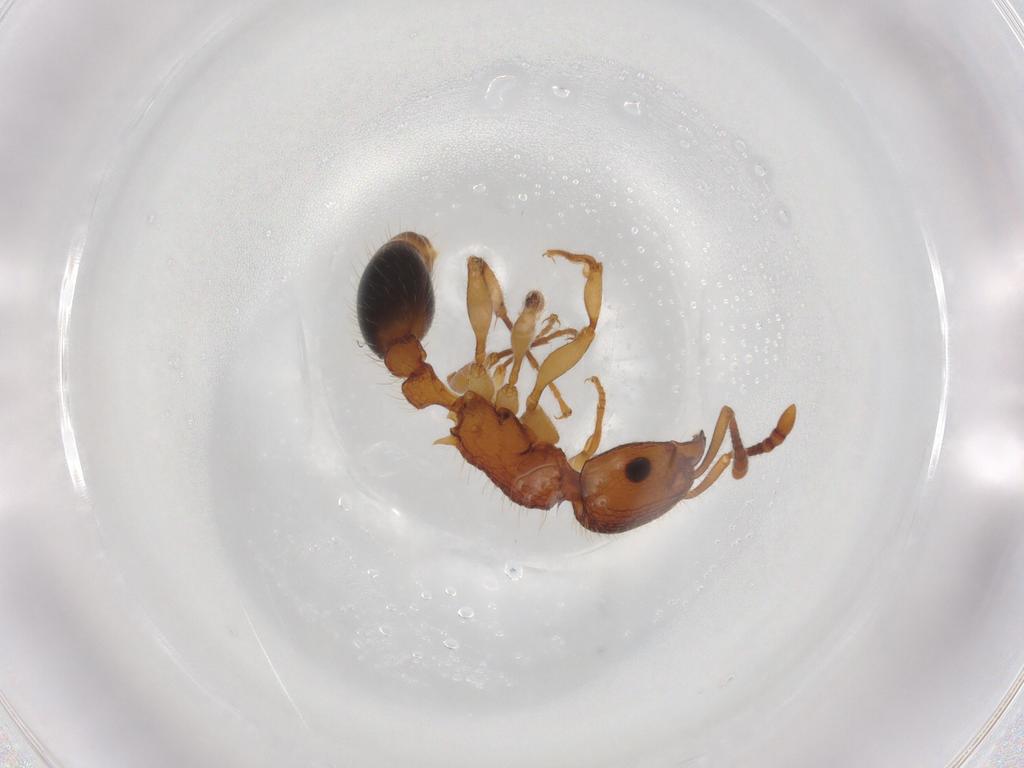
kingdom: Animalia
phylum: Arthropoda
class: Insecta
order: Hymenoptera
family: Formicidae
